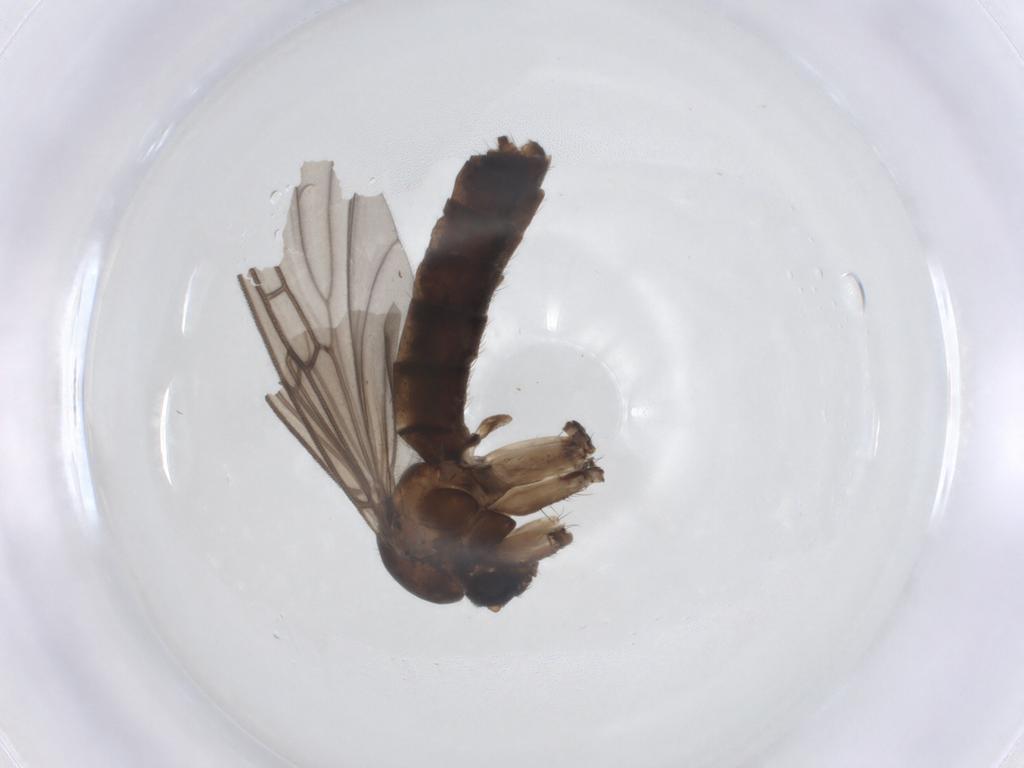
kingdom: Animalia
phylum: Arthropoda
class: Insecta
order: Diptera
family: Mycetophilidae
